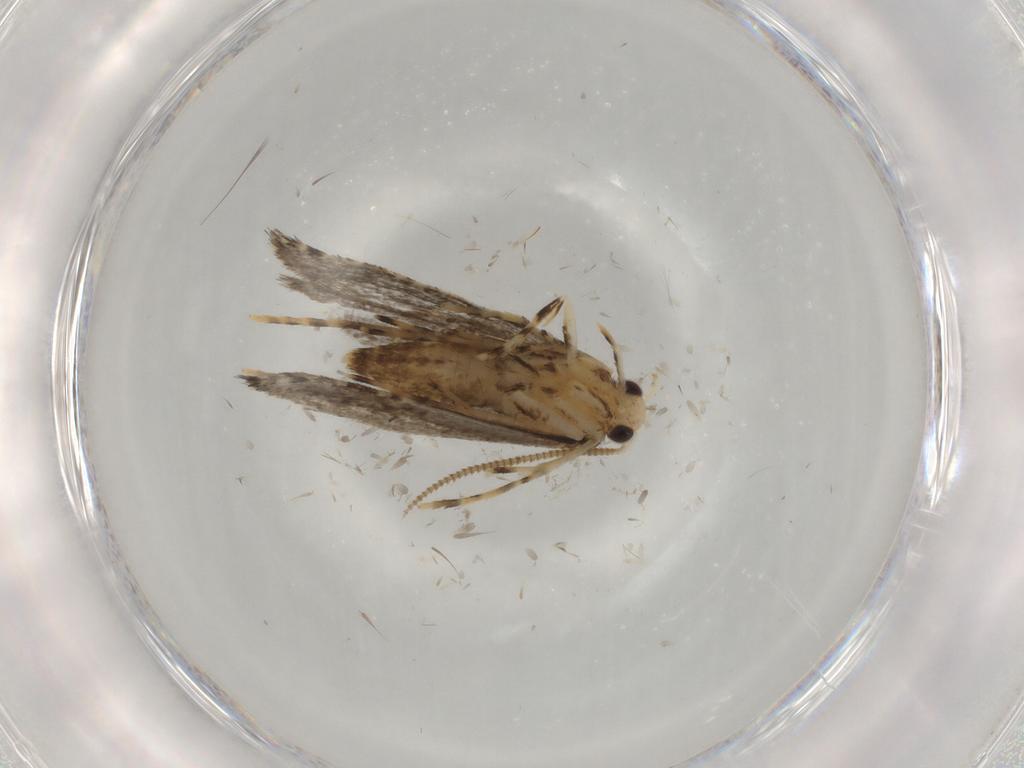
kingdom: Animalia
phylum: Arthropoda
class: Insecta
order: Lepidoptera
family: Tineidae
